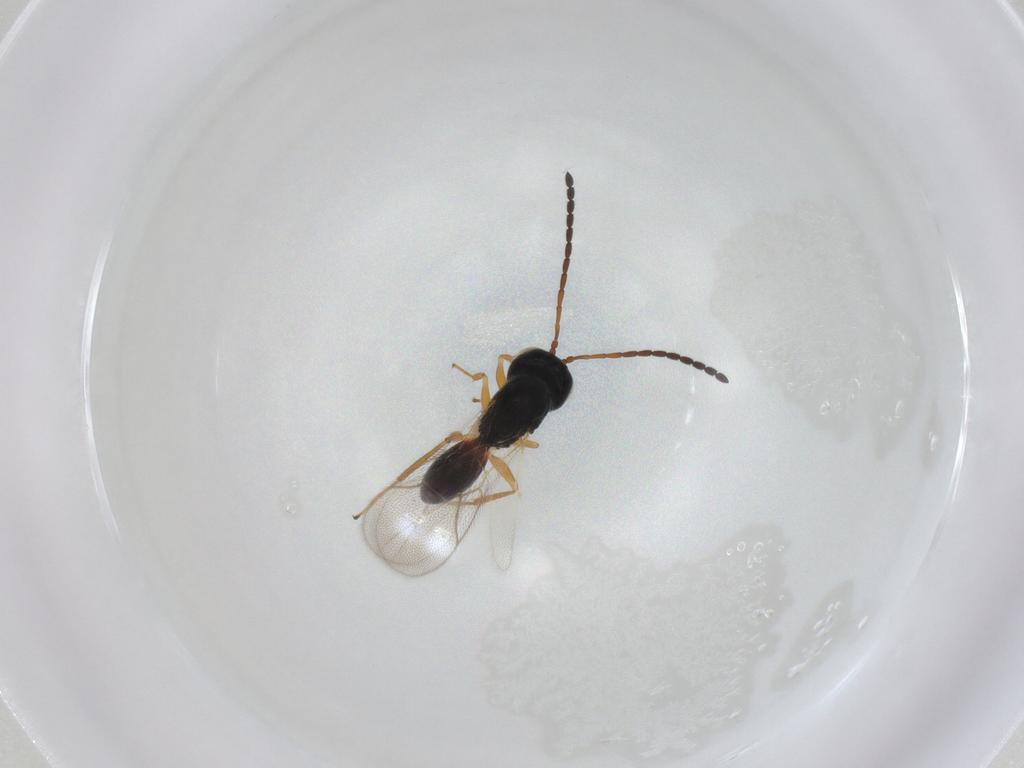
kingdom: Animalia
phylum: Arthropoda
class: Insecta
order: Hymenoptera
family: Figitidae
